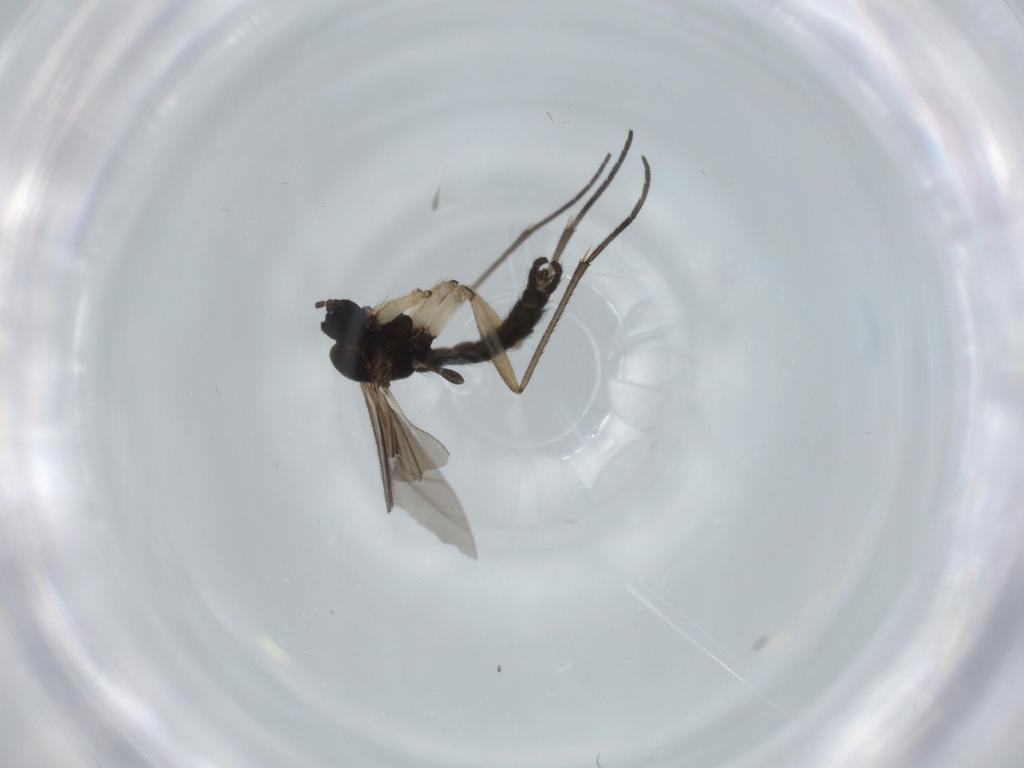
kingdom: Animalia
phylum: Arthropoda
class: Insecta
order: Diptera
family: Sciaridae
